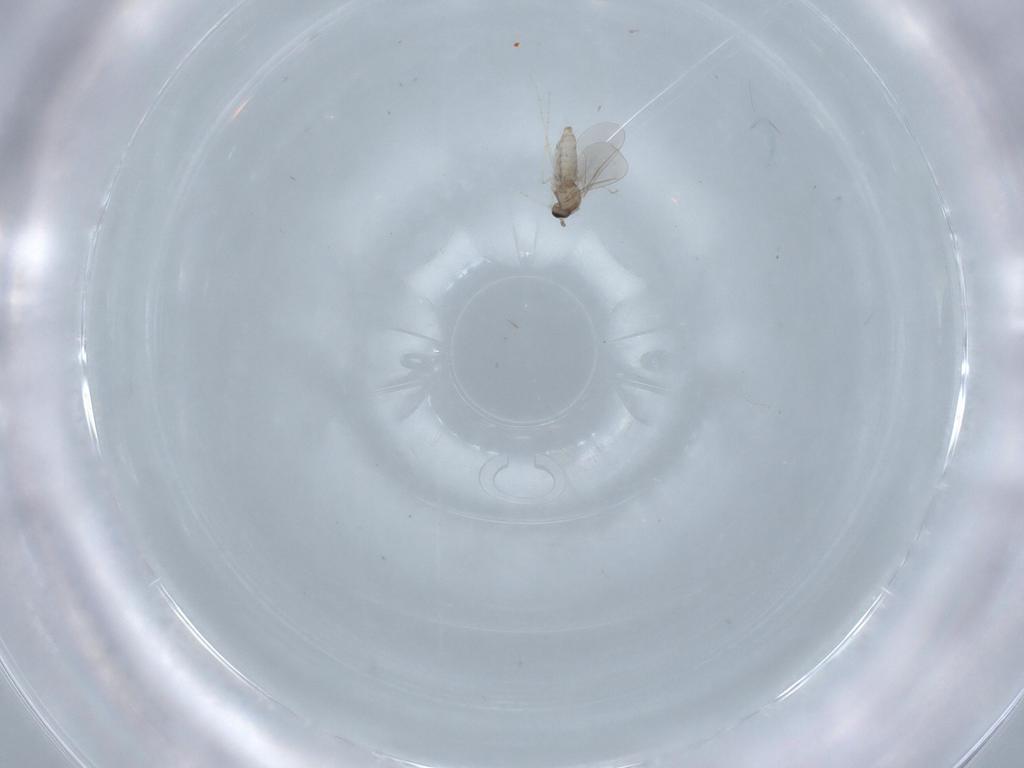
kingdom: Animalia
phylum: Arthropoda
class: Insecta
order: Diptera
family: Cecidomyiidae
